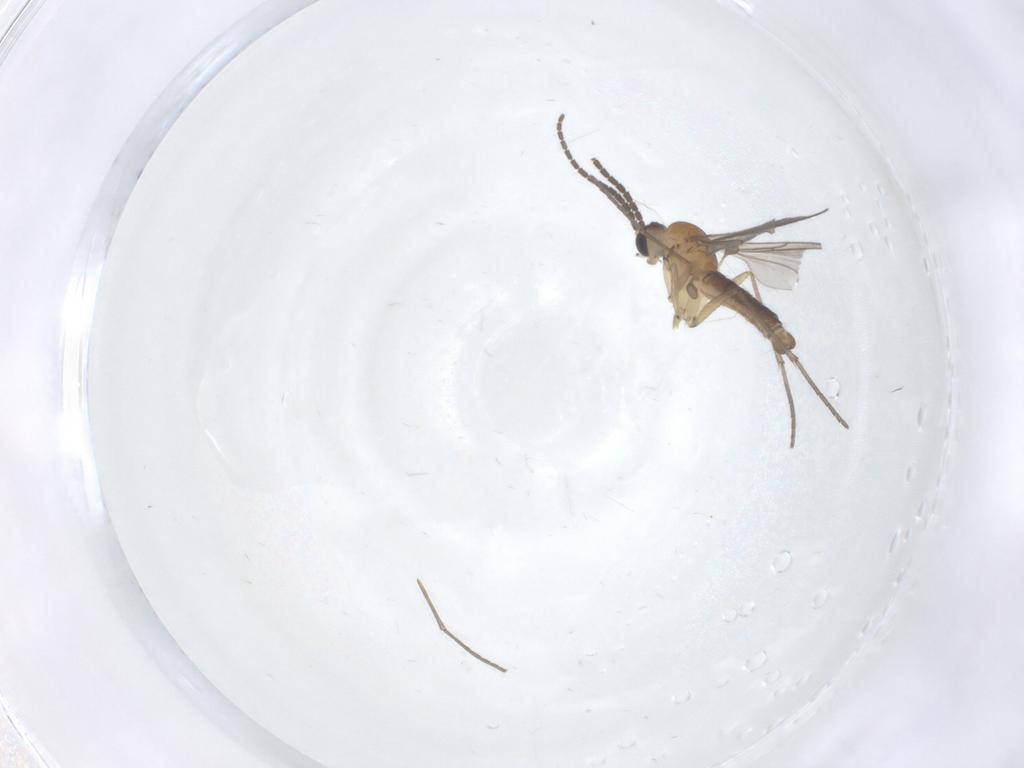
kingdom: Animalia
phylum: Arthropoda
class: Insecta
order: Diptera
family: Sciaridae
